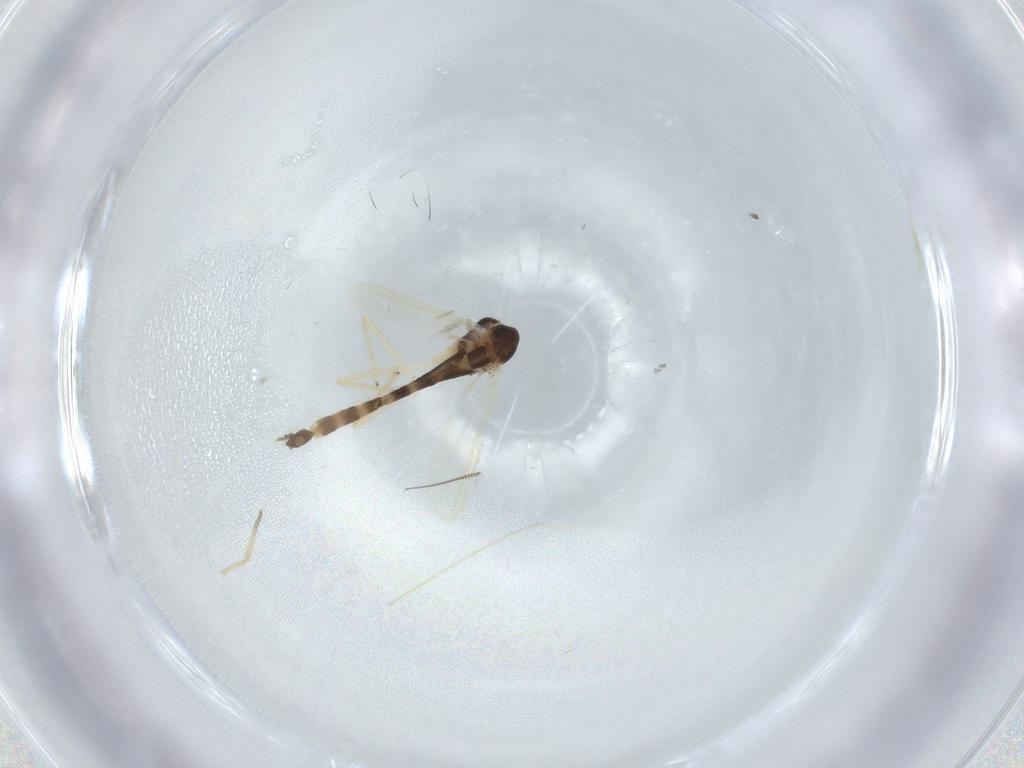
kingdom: Animalia
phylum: Arthropoda
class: Insecta
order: Diptera
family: Chironomidae
